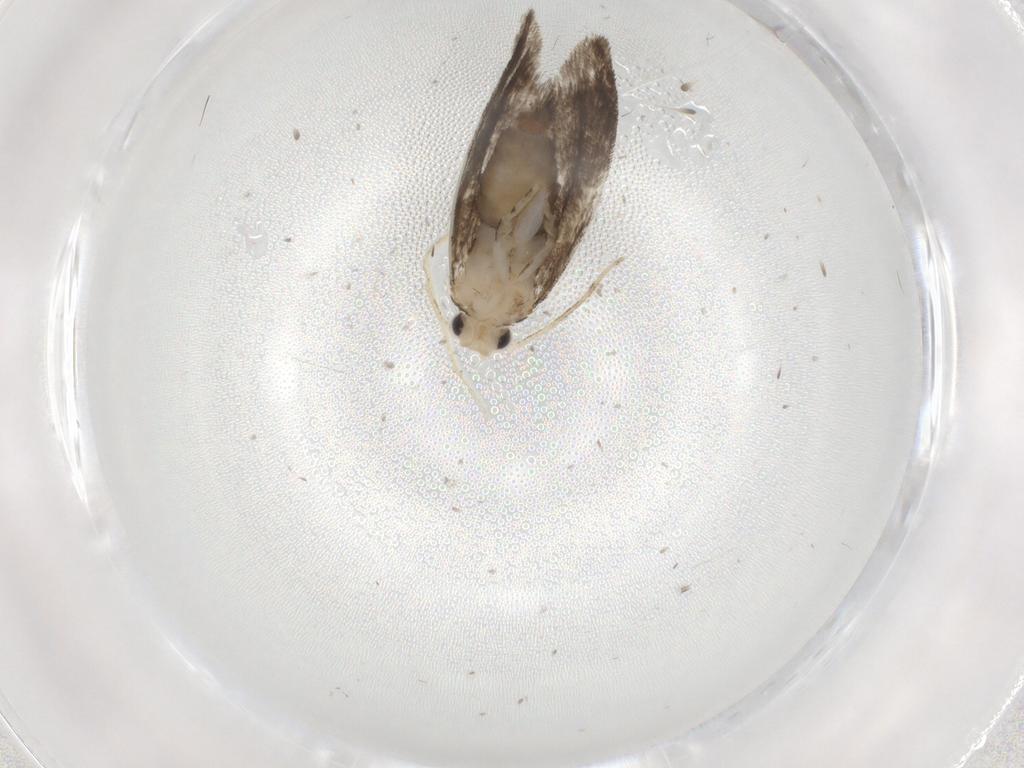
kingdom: Animalia
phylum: Arthropoda
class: Insecta
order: Lepidoptera
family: Tineidae
